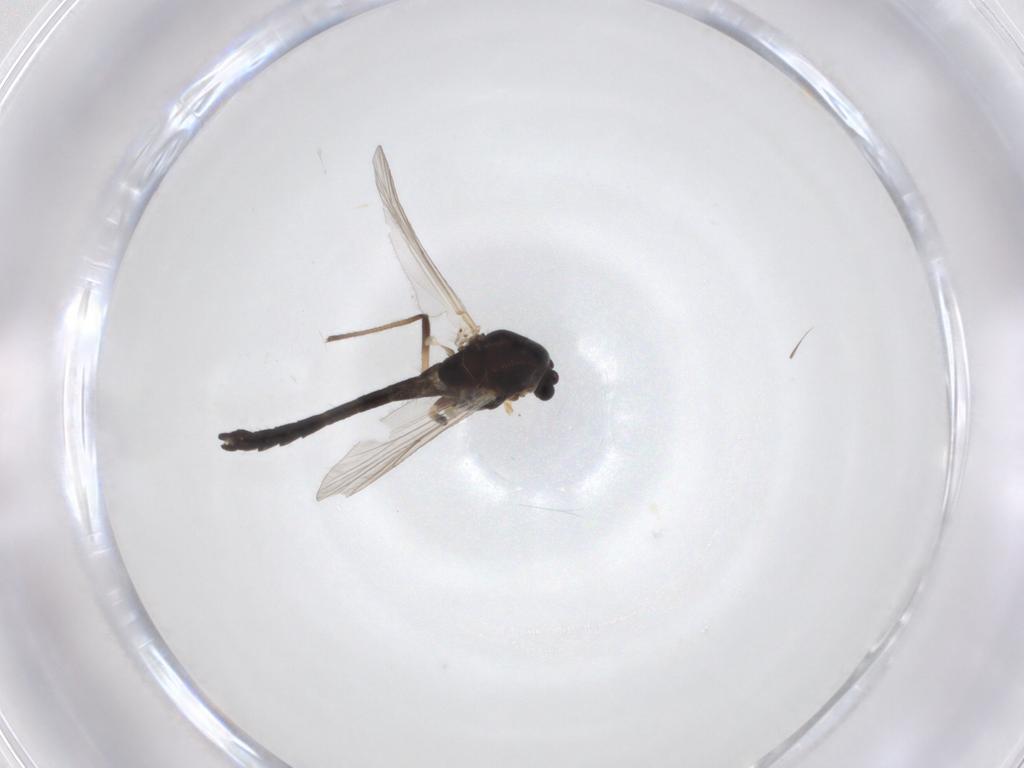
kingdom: Animalia
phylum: Arthropoda
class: Insecta
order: Diptera
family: Chironomidae
